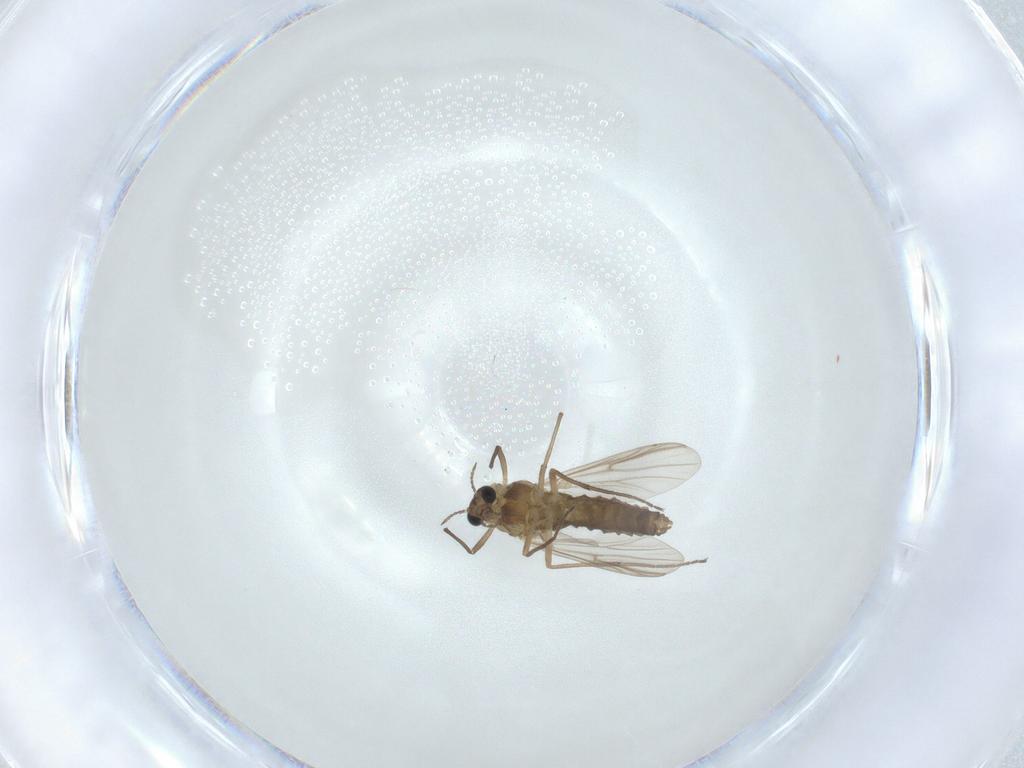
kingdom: Animalia
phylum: Arthropoda
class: Insecta
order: Diptera
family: Chironomidae
